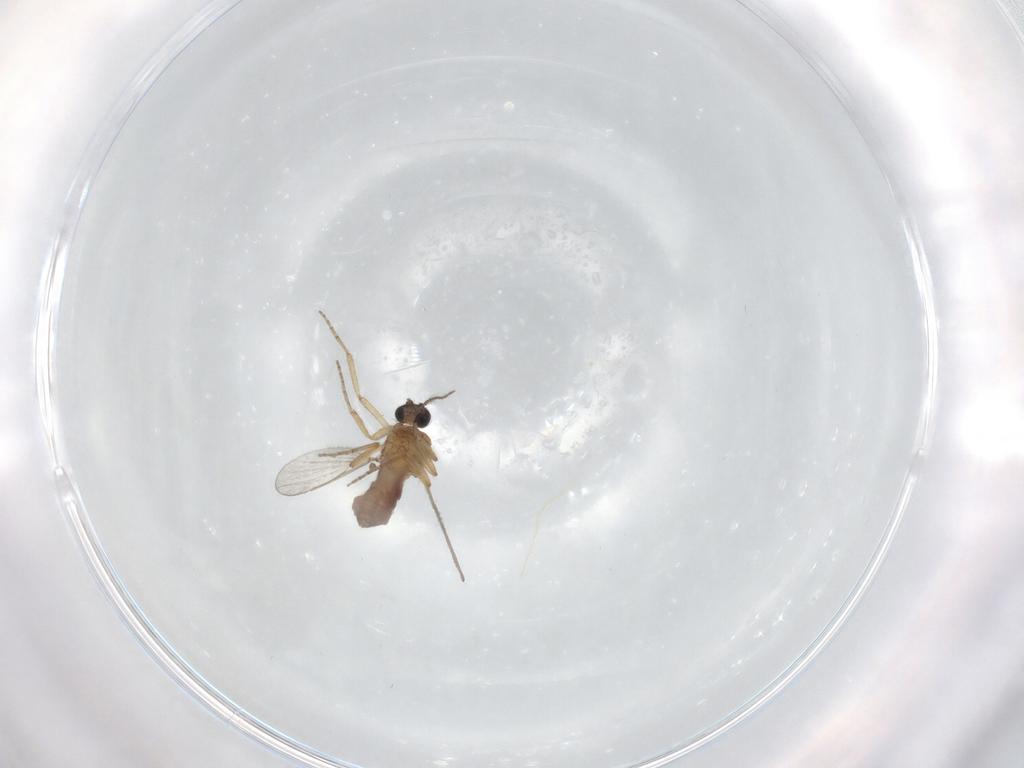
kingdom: Animalia
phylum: Arthropoda
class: Insecta
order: Diptera
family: Ceratopogonidae
